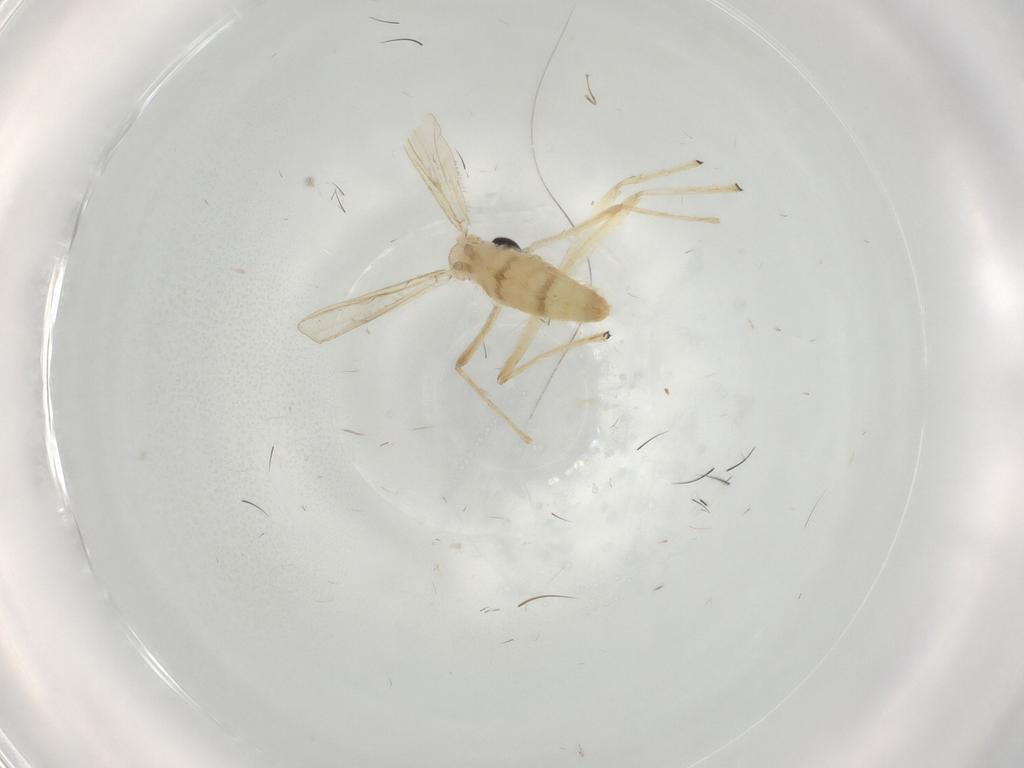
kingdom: Animalia
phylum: Arthropoda
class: Insecta
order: Diptera
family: Chironomidae
